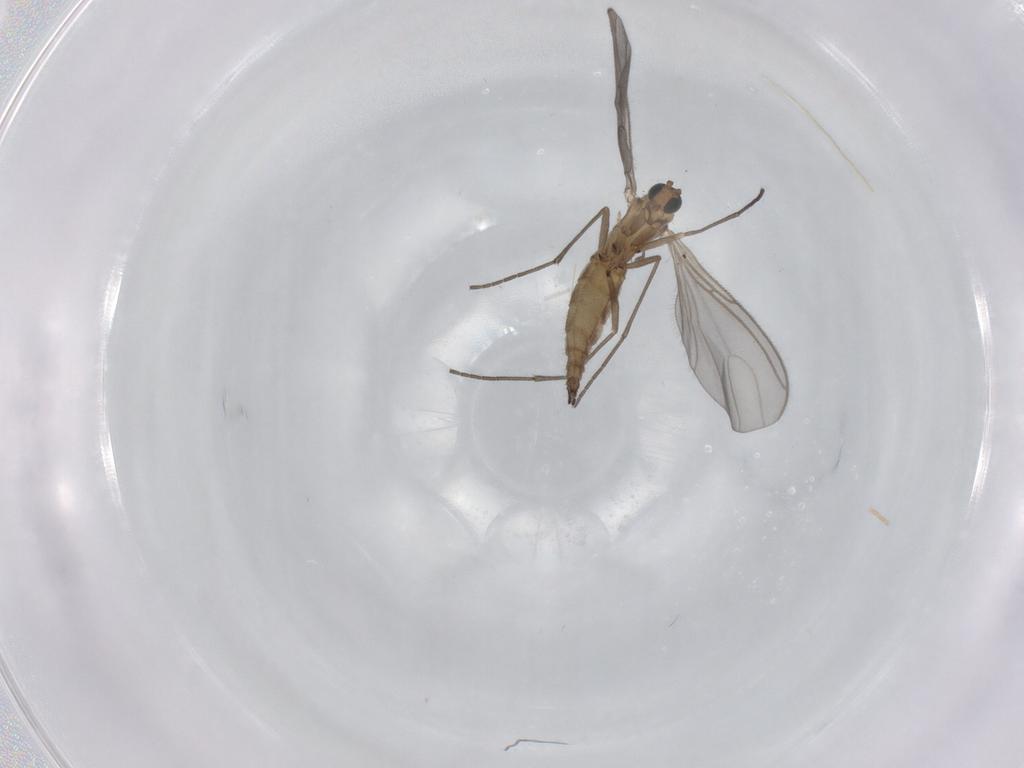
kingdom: Animalia
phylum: Arthropoda
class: Insecta
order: Diptera
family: Sciaridae
